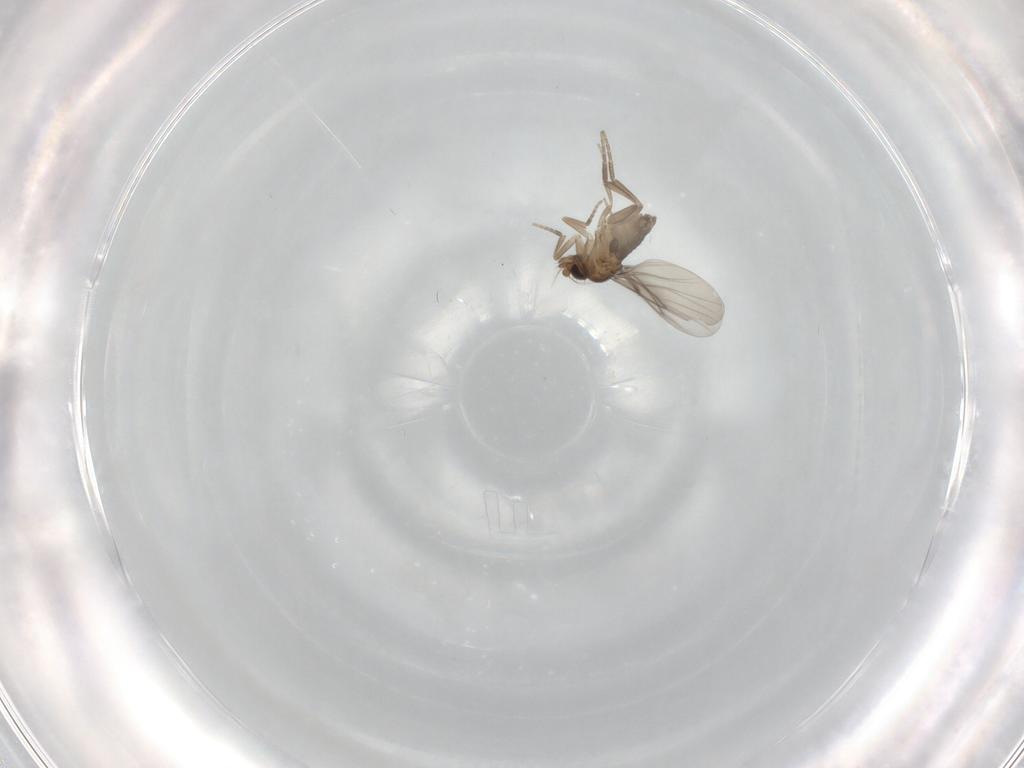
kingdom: Animalia
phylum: Arthropoda
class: Insecta
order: Diptera
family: Phoridae
